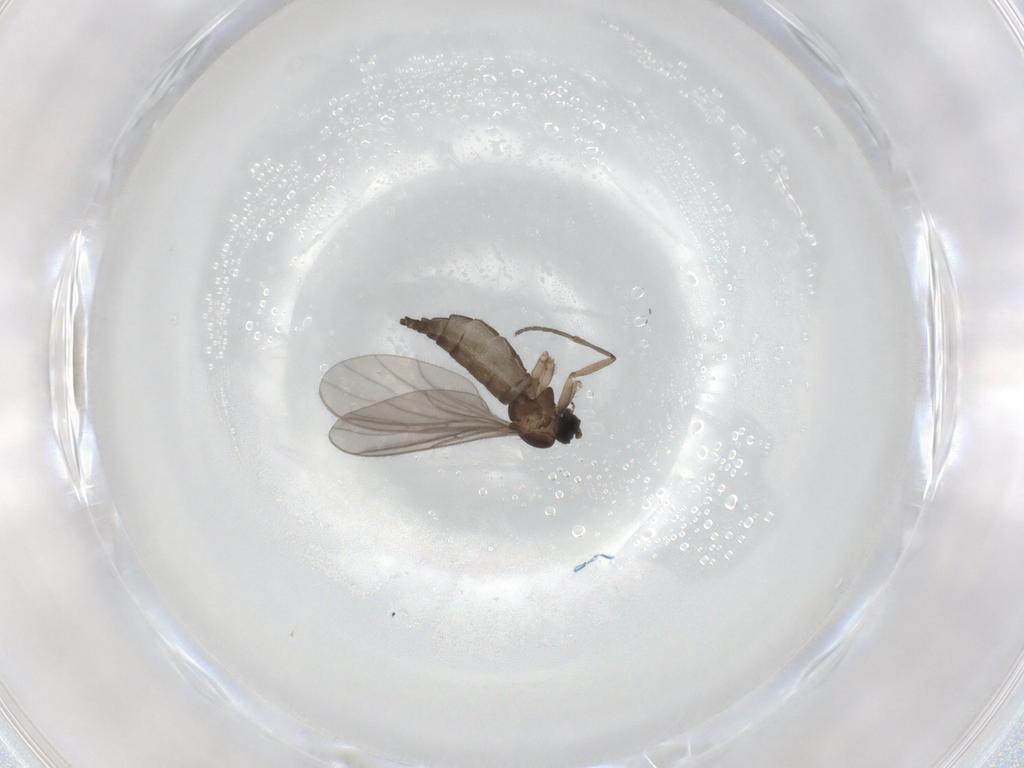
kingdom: Animalia
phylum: Arthropoda
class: Insecta
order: Diptera
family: Sciaridae
